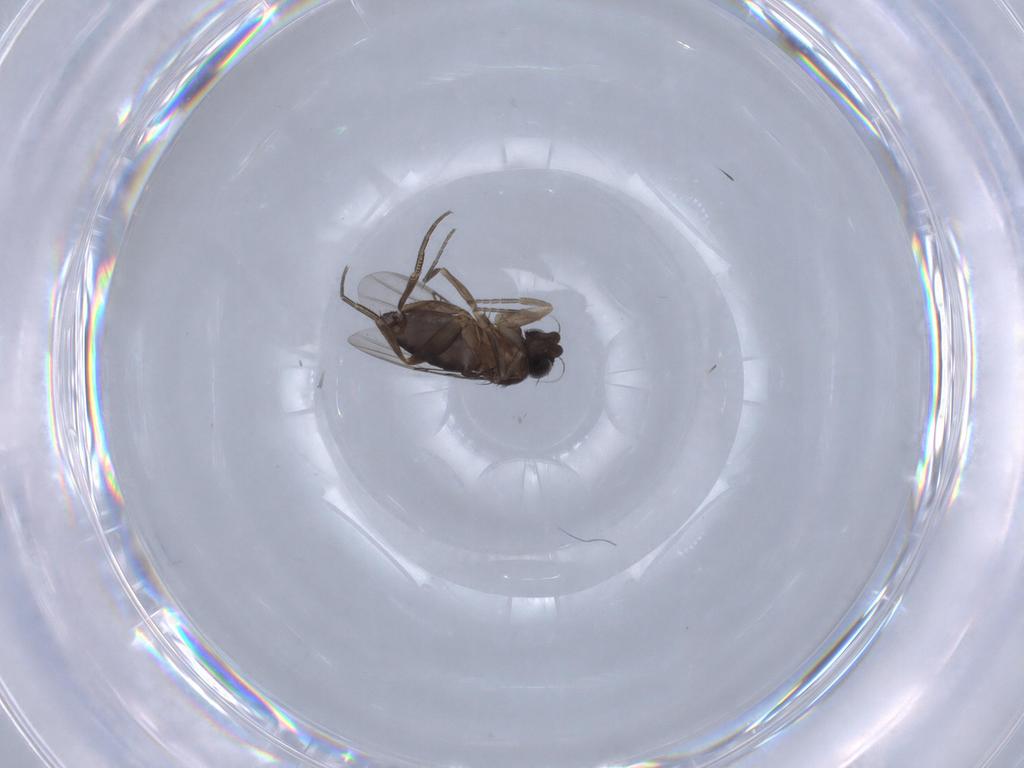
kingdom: Animalia
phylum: Arthropoda
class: Insecta
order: Diptera
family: Phoridae
